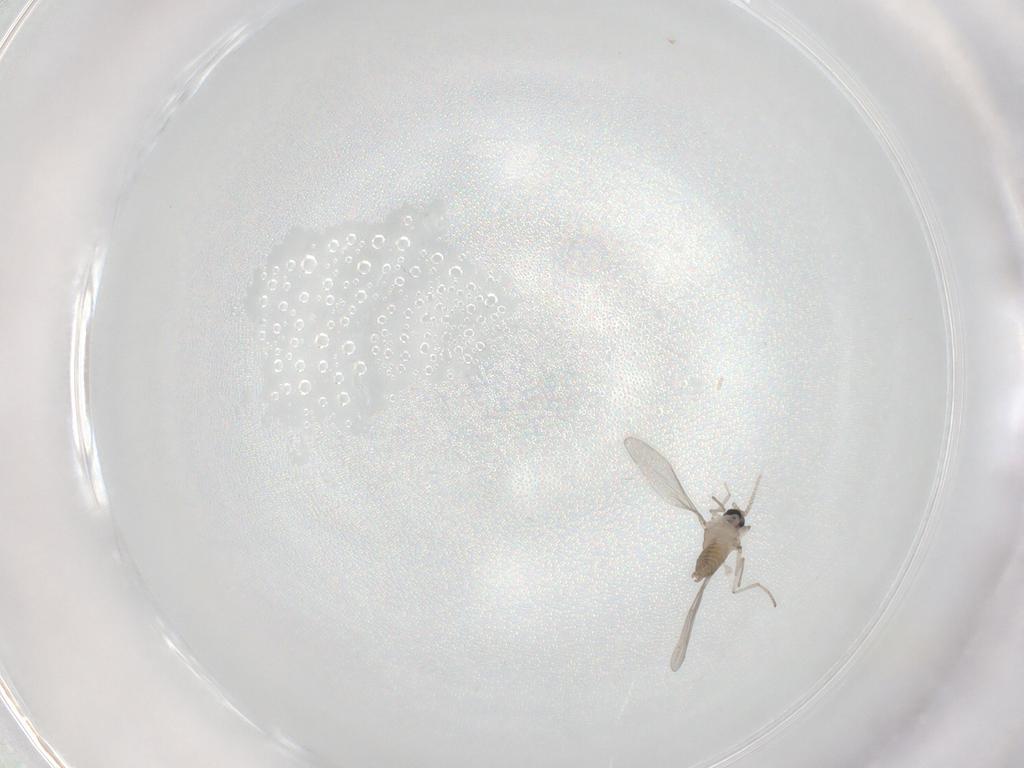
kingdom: Animalia
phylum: Arthropoda
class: Insecta
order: Diptera
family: Cecidomyiidae
